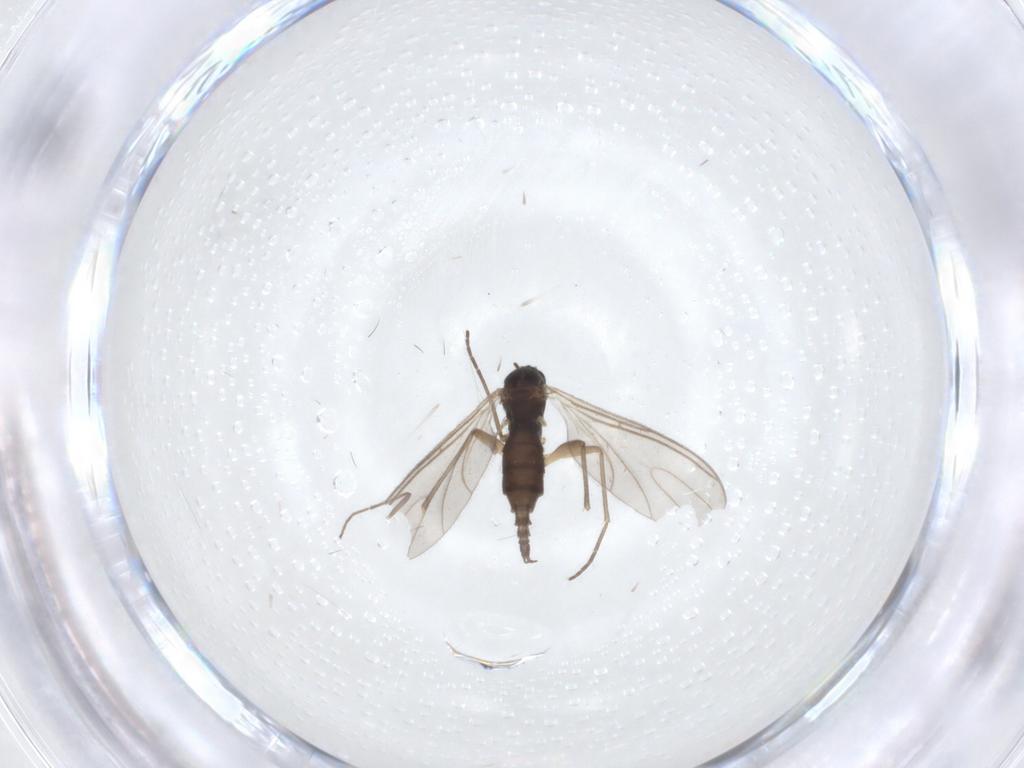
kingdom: Animalia
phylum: Arthropoda
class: Insecta
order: Diptera
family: Sciaridae
